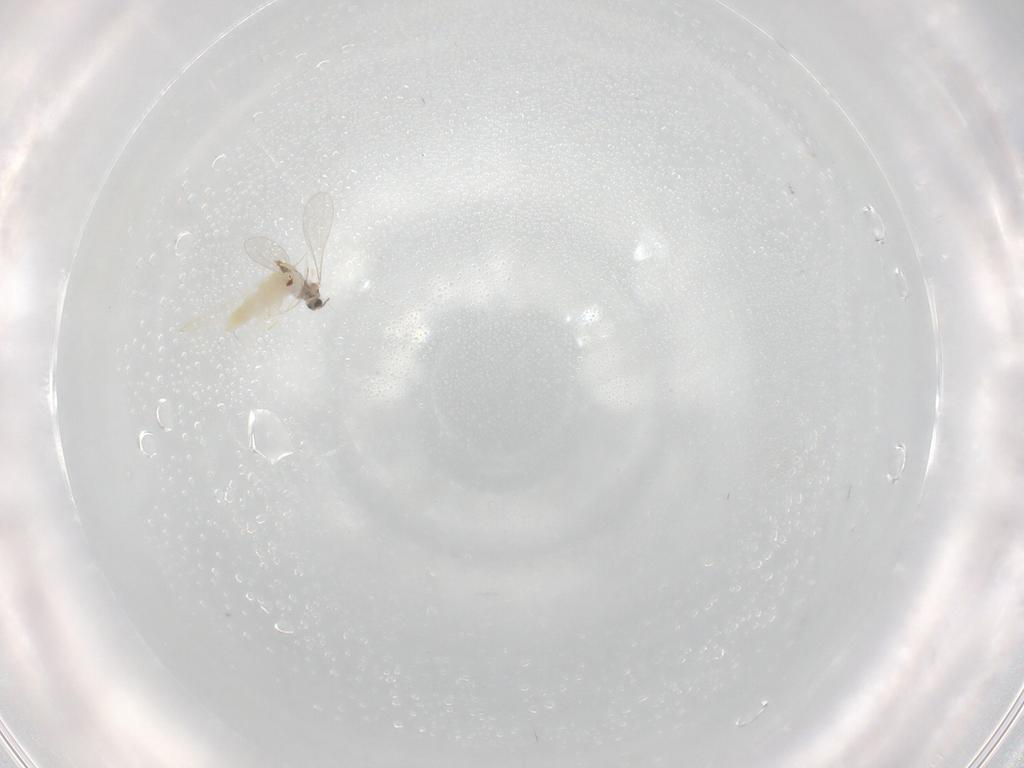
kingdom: Animalia
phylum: Arthropoda
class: Insecta
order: Hemiptera
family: Aleyrodidae
